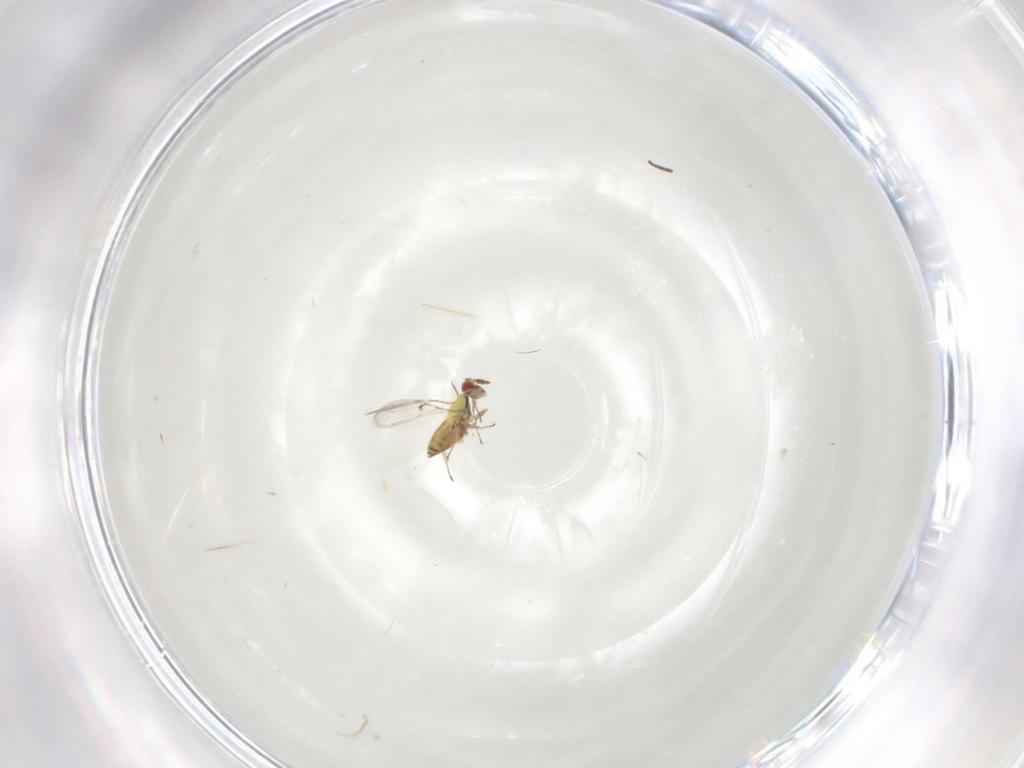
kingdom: Animalia
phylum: Arthropoda
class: Insecta
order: Hymenoptera
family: Trichogrammatidae
